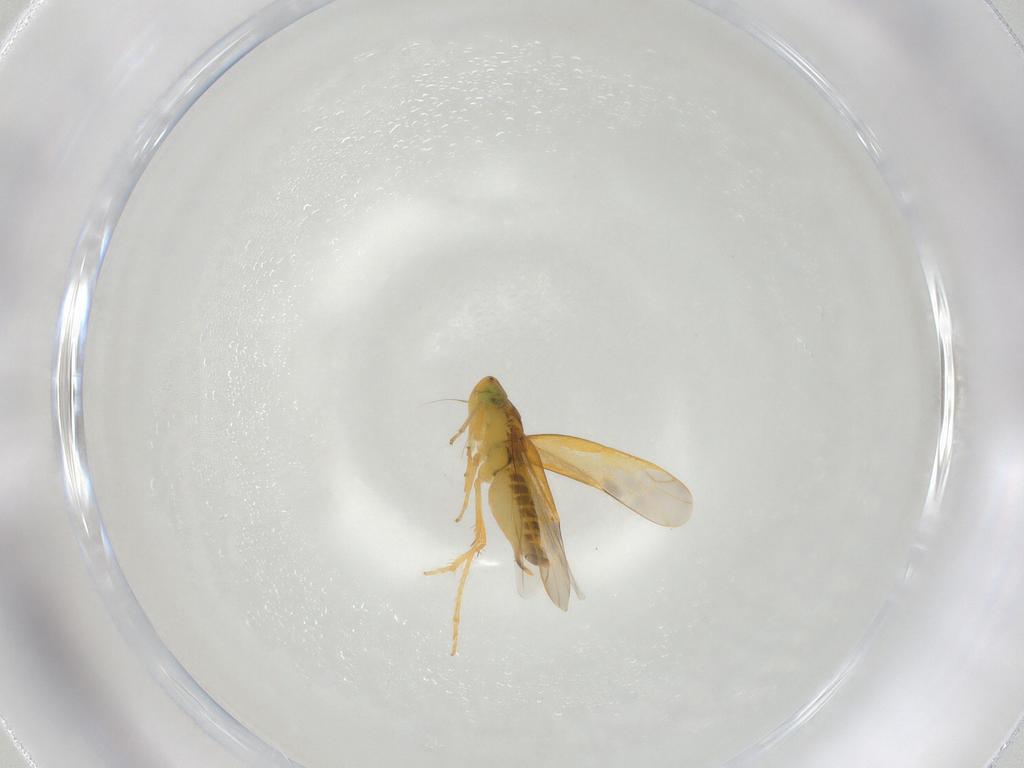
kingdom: Animalia
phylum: Arthropoda
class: Insecta
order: Hemiptera
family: Cicadellidae
